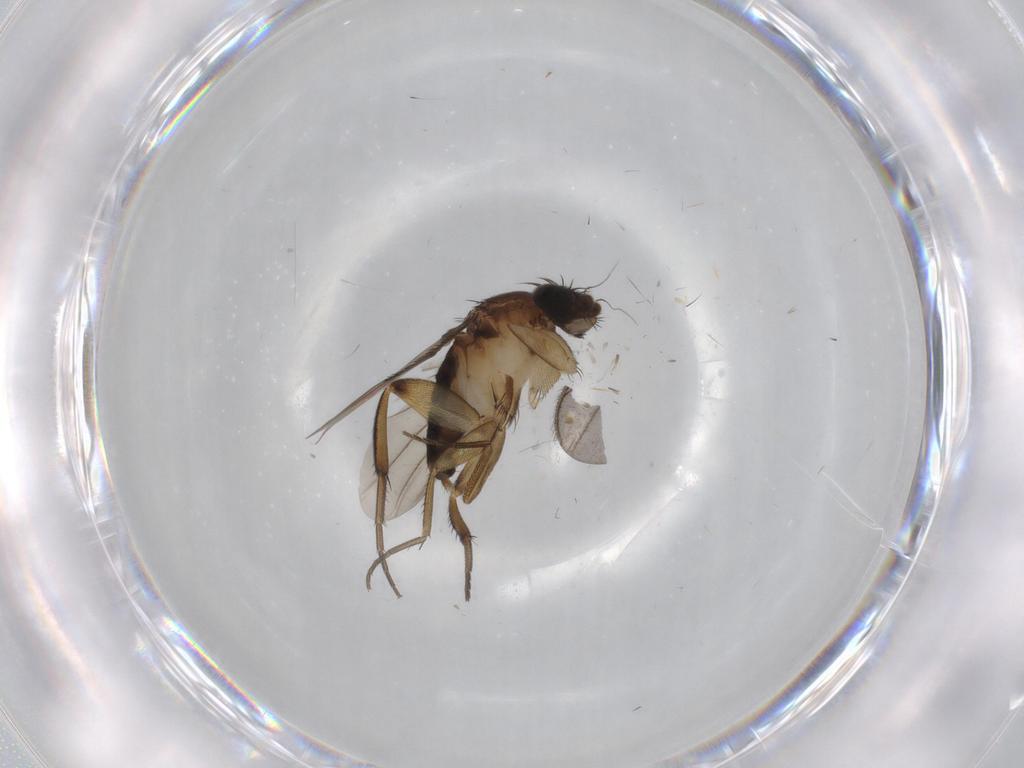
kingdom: Animalia
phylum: Arthropoda
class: Insecta
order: Diptera
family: Phoridae
